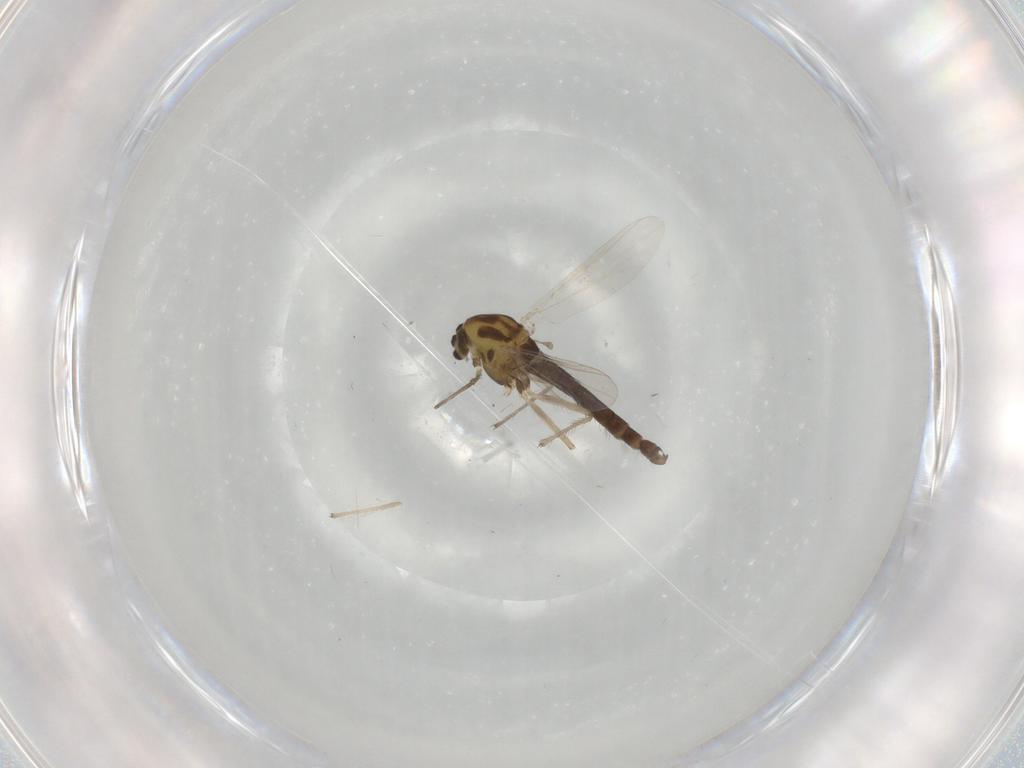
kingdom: Animalia
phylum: Arthropoda
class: Insecta
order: Diptera
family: Chironomidae
